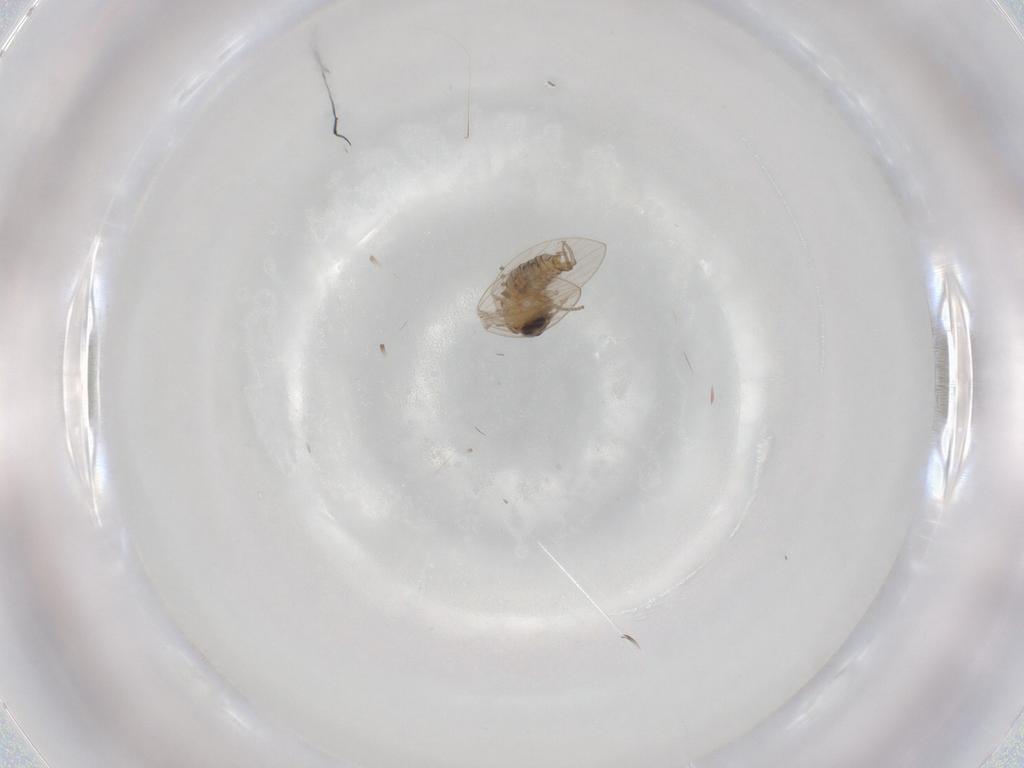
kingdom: Animalia
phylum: Arthropoda
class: Insecta
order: Diptera
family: Psychodidae
